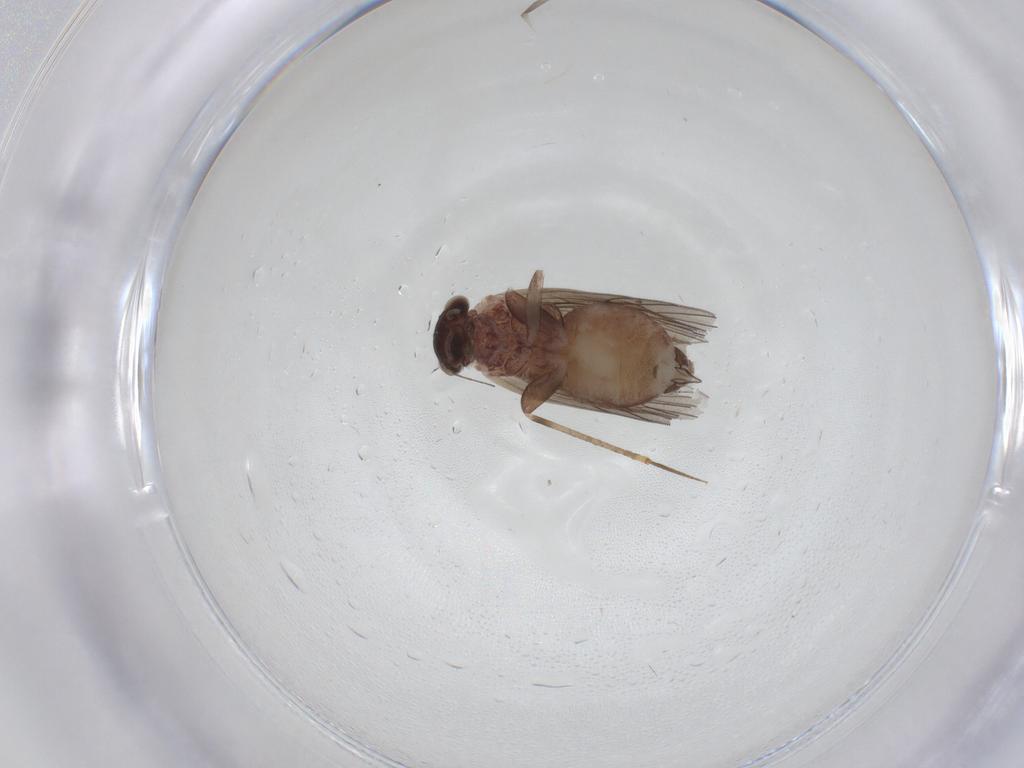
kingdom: Animalia
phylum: Arthropoda
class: Insecta
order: Psocodea
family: Lepidopsocidae
